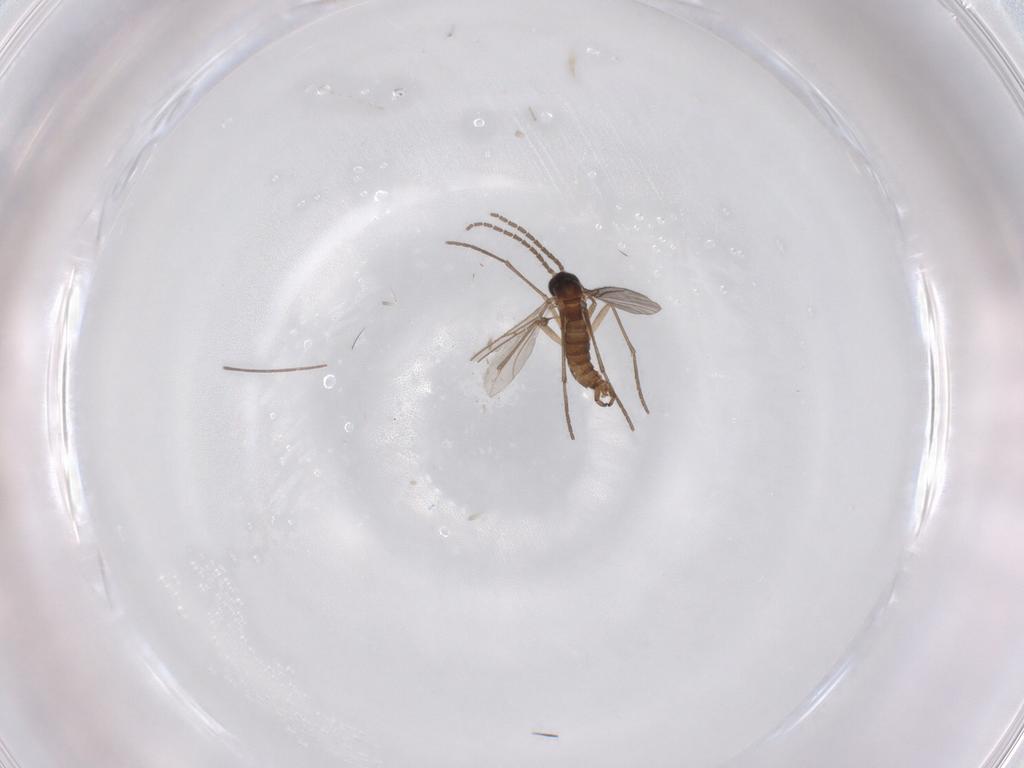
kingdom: Animalia
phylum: Arthropoda
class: Insecta
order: Diptera
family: Sciaridae
